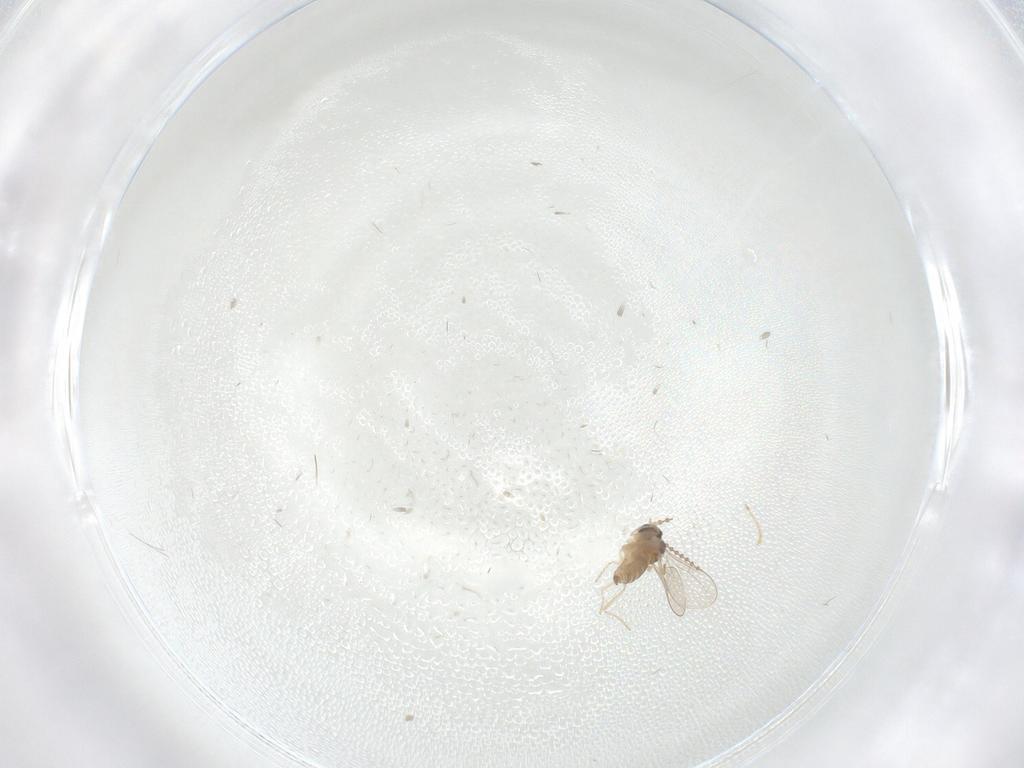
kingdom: Animalia
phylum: Arthropoda
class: Insecta
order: Diptera
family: Cecidomyiidae
